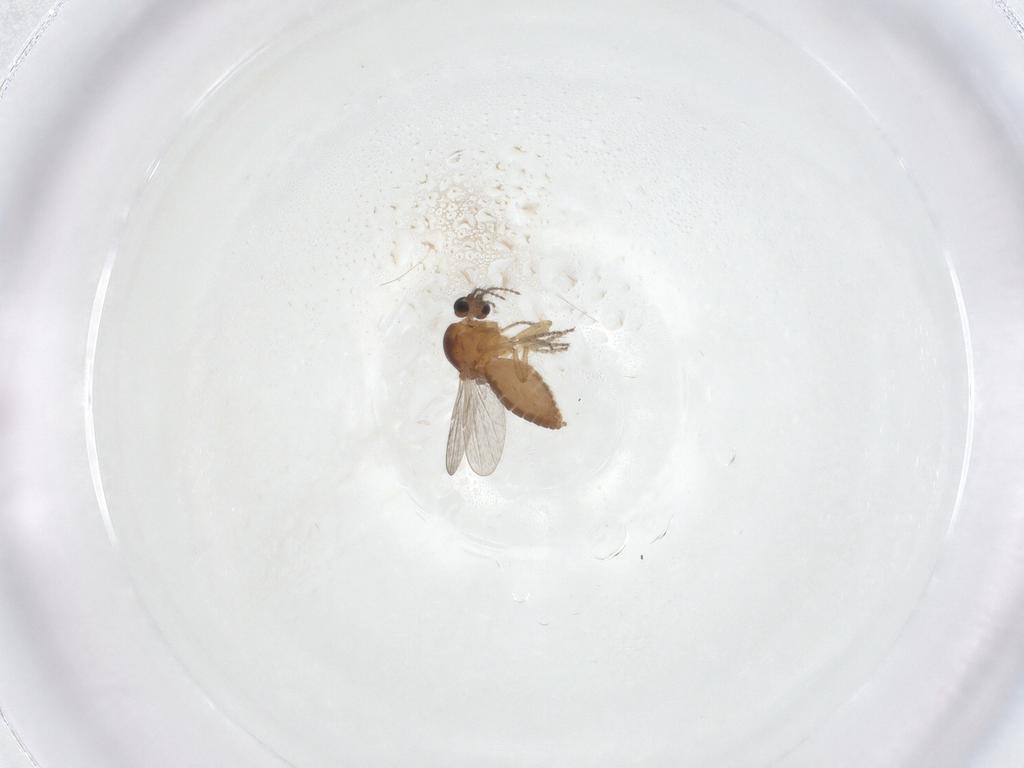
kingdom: Animalia
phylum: Arthropoda
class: Insecta
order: Diptera
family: Ceratopogonidae
